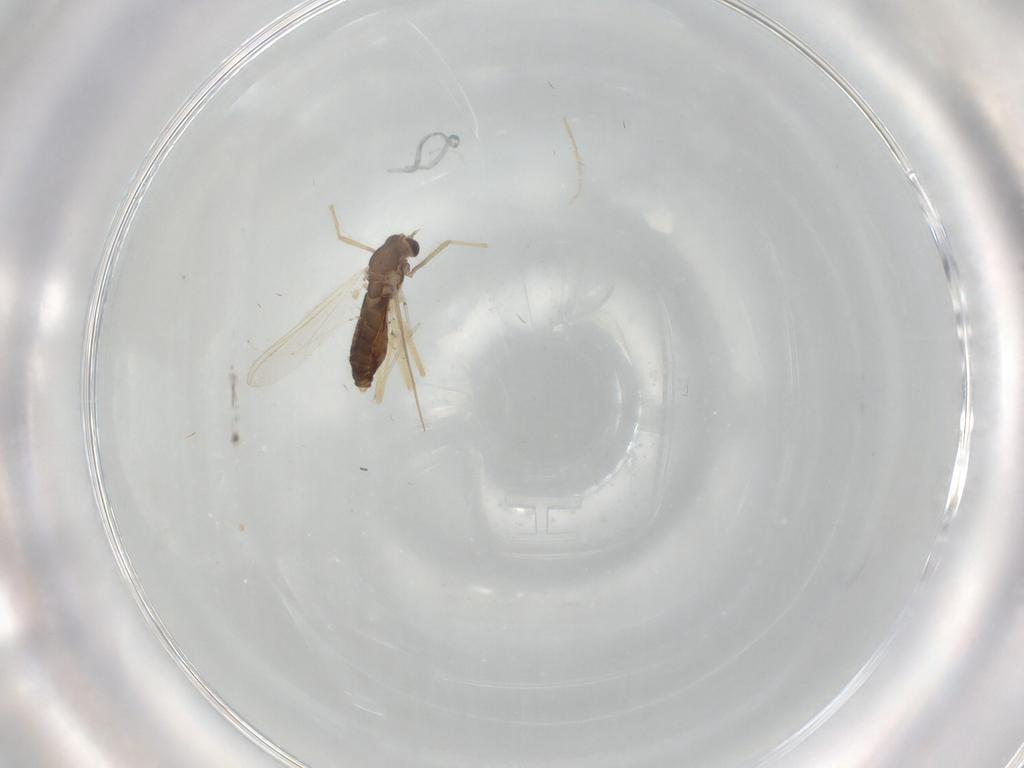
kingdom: Animalia
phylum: Arthropoda
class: Insecta
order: Diptera
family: Chironomidae
